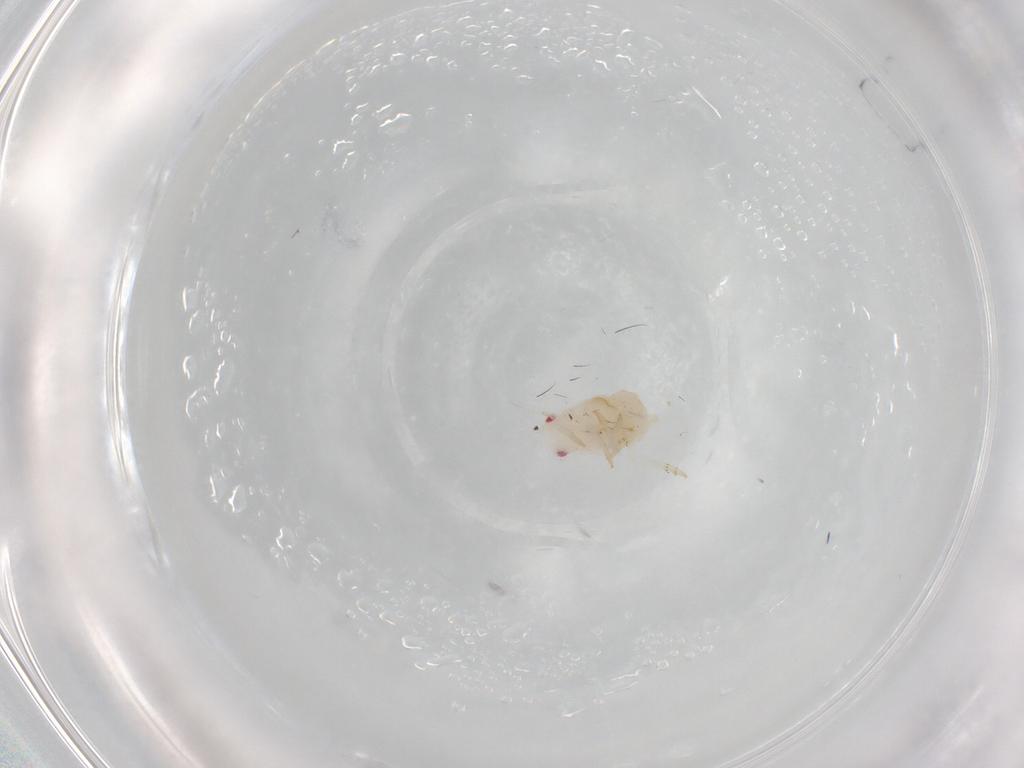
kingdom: Animalia
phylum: Arthropoda
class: Insecta
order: Hemiptera
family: Flatidae
